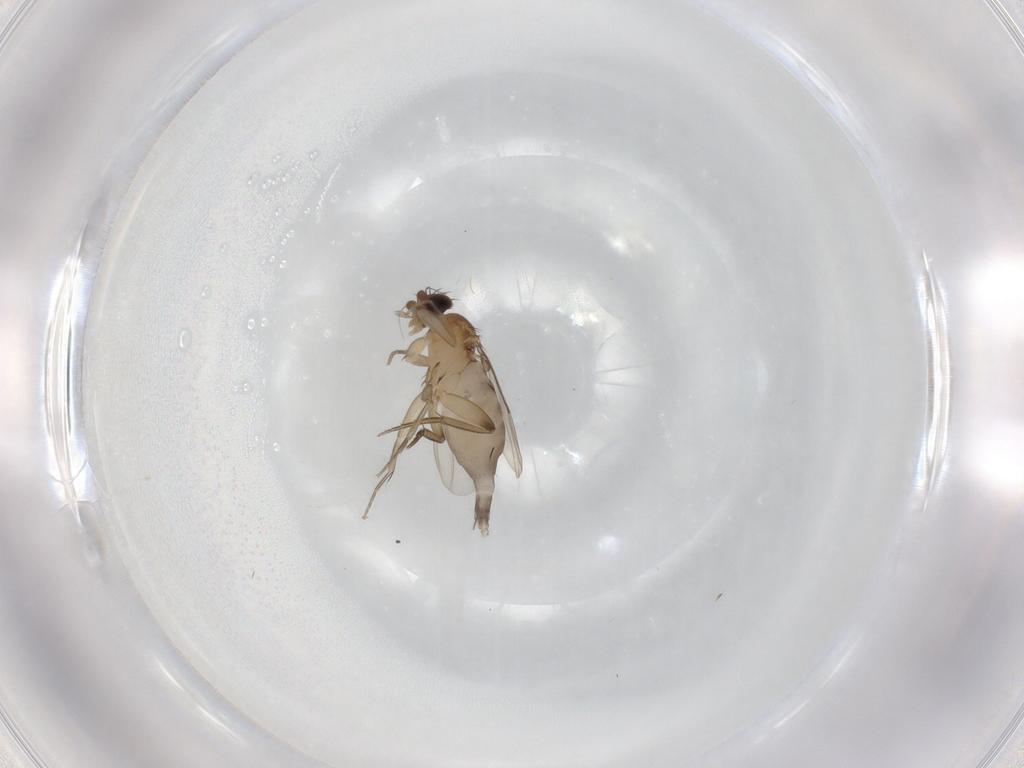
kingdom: Animalia
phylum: Arthropoda
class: Insecta
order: Diptera
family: Phoridae
